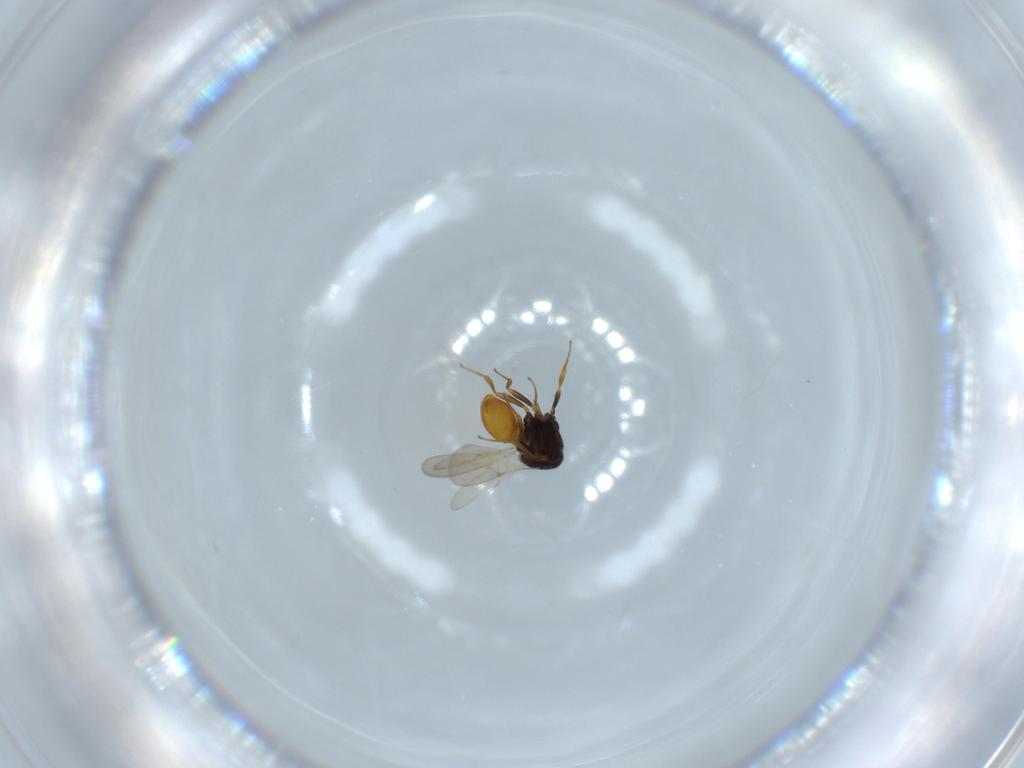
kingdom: Animalia
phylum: Arthropoda
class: Insecta
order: Hymenoptera
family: Scelionidae
